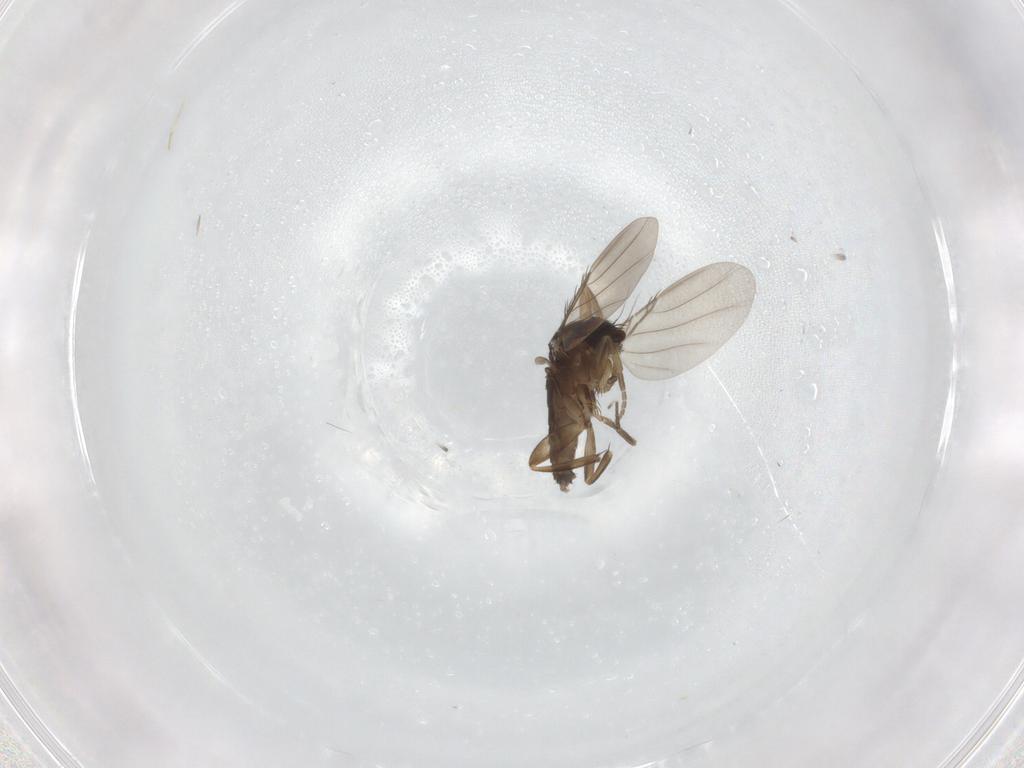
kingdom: Animalia
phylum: Arthropoda
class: Insecta
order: Diptera
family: Phoridae
